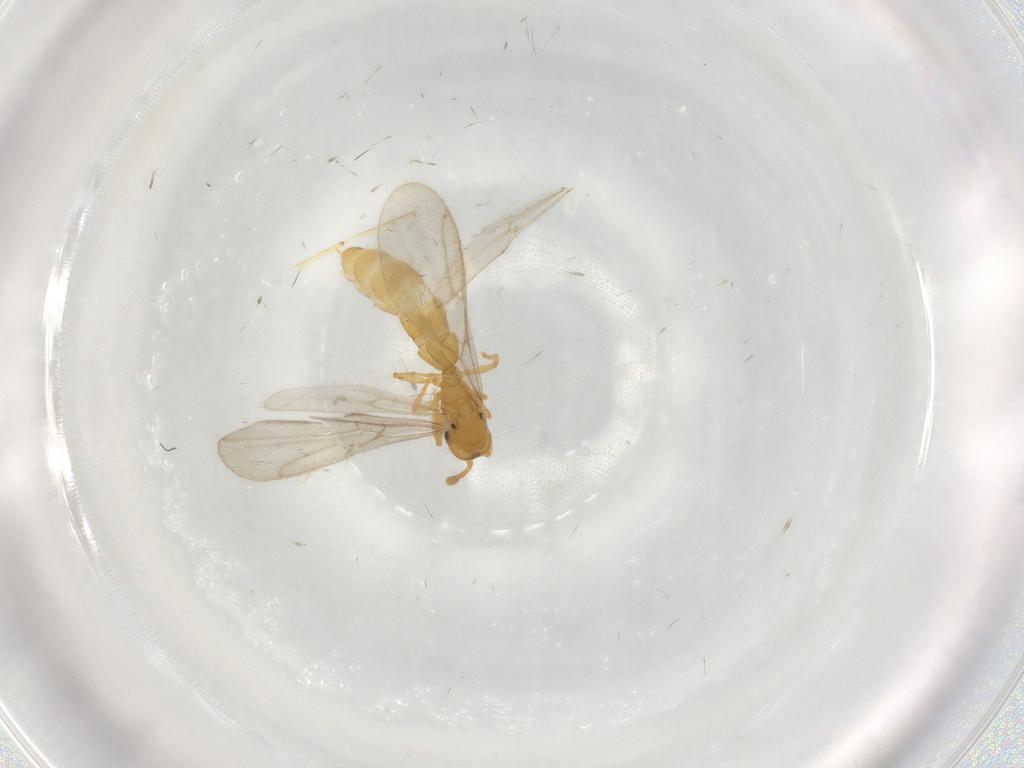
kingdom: Animalia
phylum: Arthropoda
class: Insecta
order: Hymenoptera
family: Formicidae
